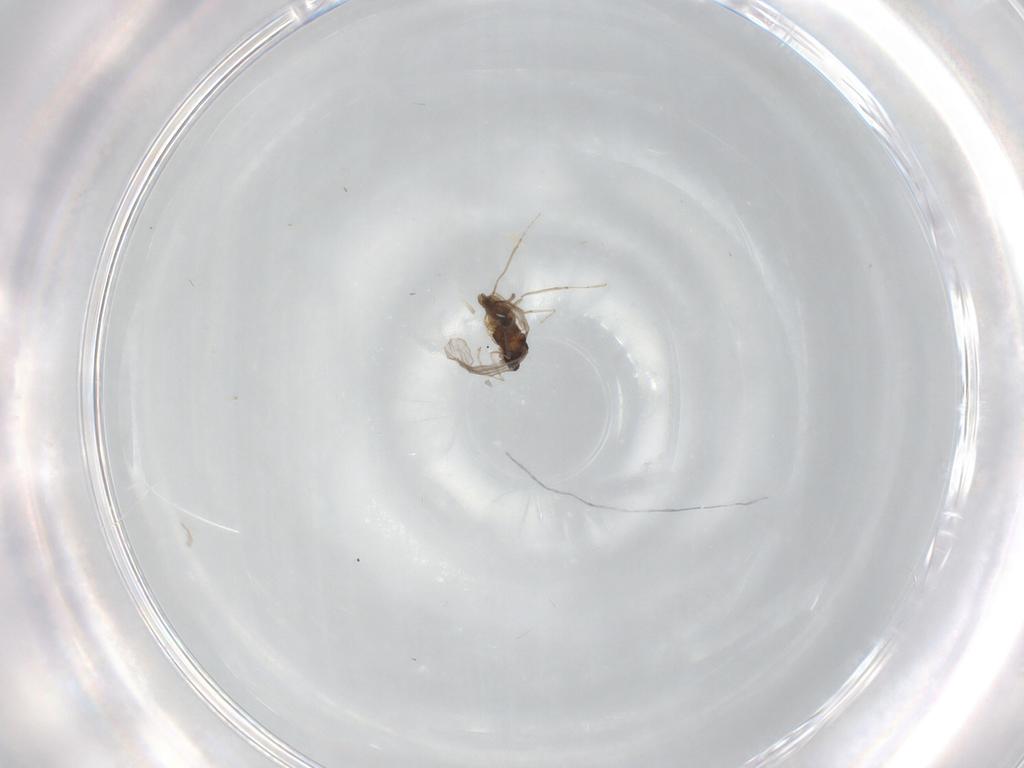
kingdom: Animalia
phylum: Arthropoda
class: Insecta
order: Diptera
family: Cecidomyiidae
